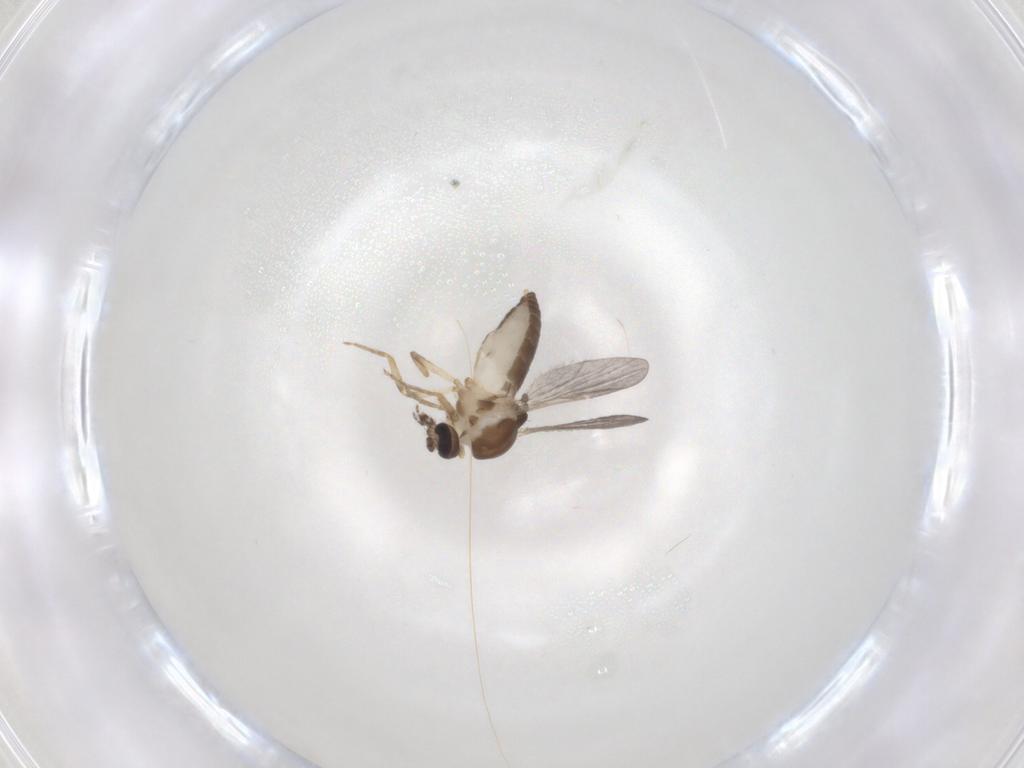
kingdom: Animalia
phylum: Arthropoda
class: Insecta
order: Diptera
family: Ceratopogonidae
